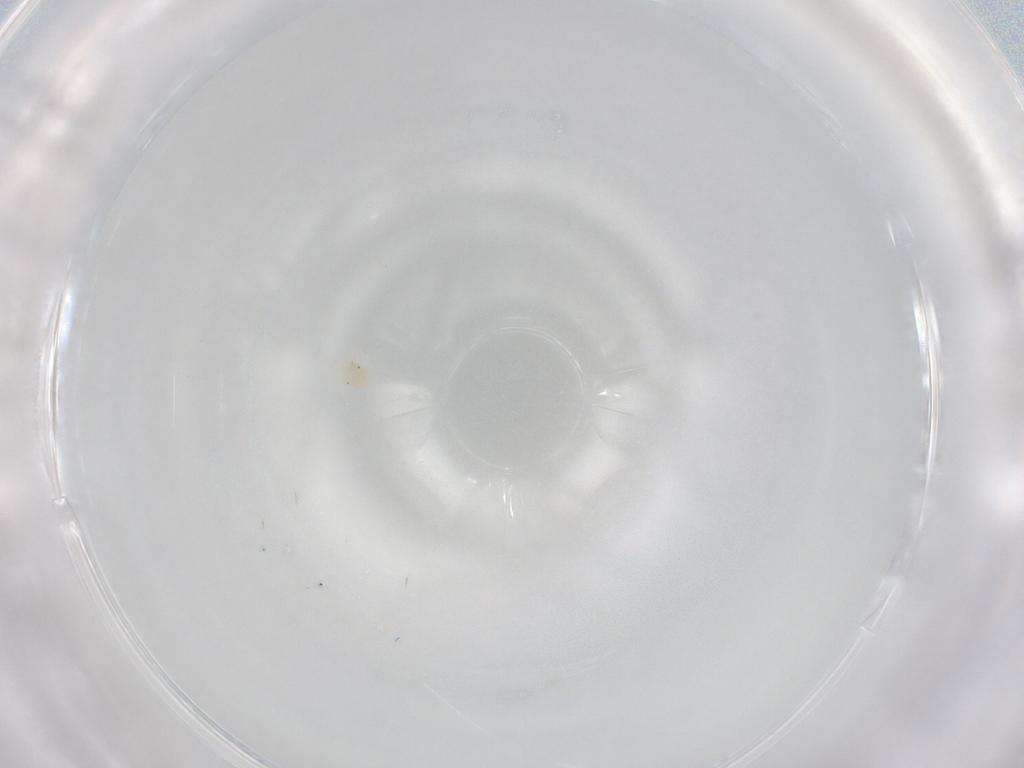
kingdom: Animalia
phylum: Arthropoda
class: Arachnida
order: Trombidiformes
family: Anystidae
